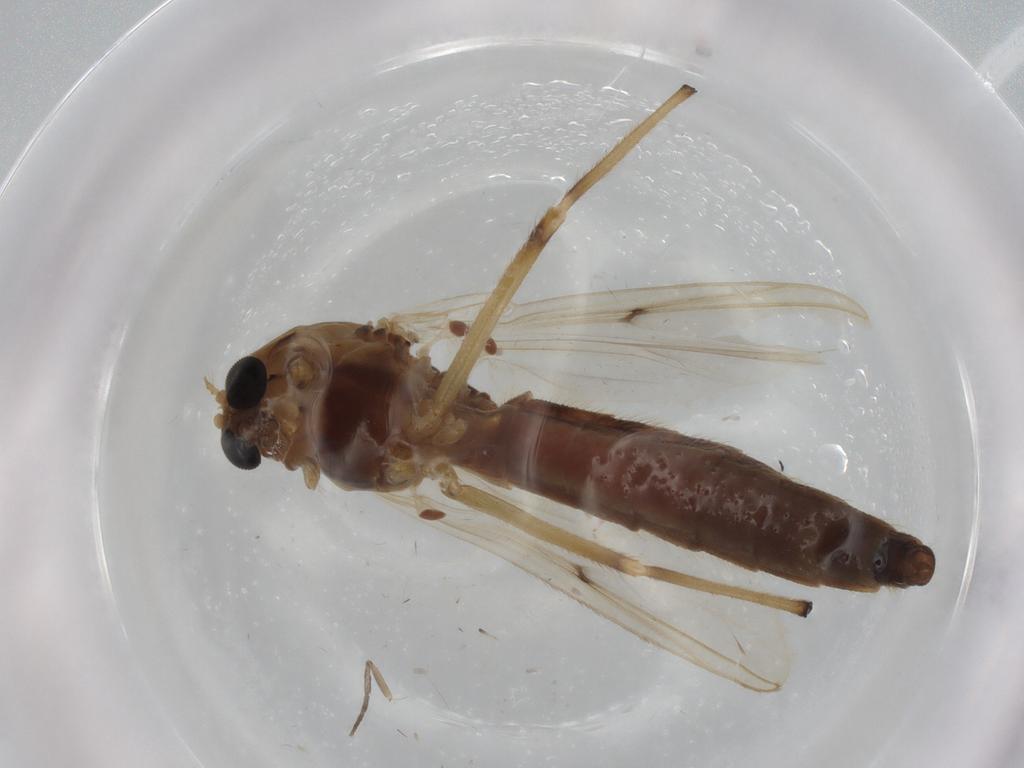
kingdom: Animalia
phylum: Arthropoda
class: Insecta
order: Diptera
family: Chironomidae
